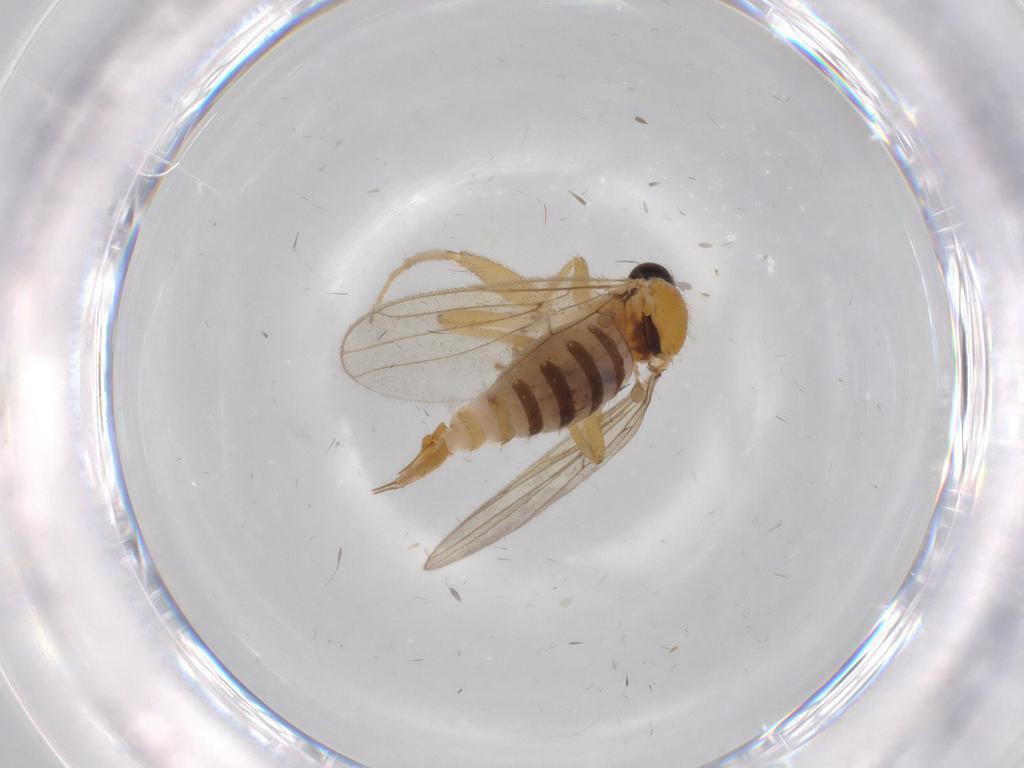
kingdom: Animalia
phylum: Arthropoda
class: Insecta
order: Diptera
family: Hybotidae
